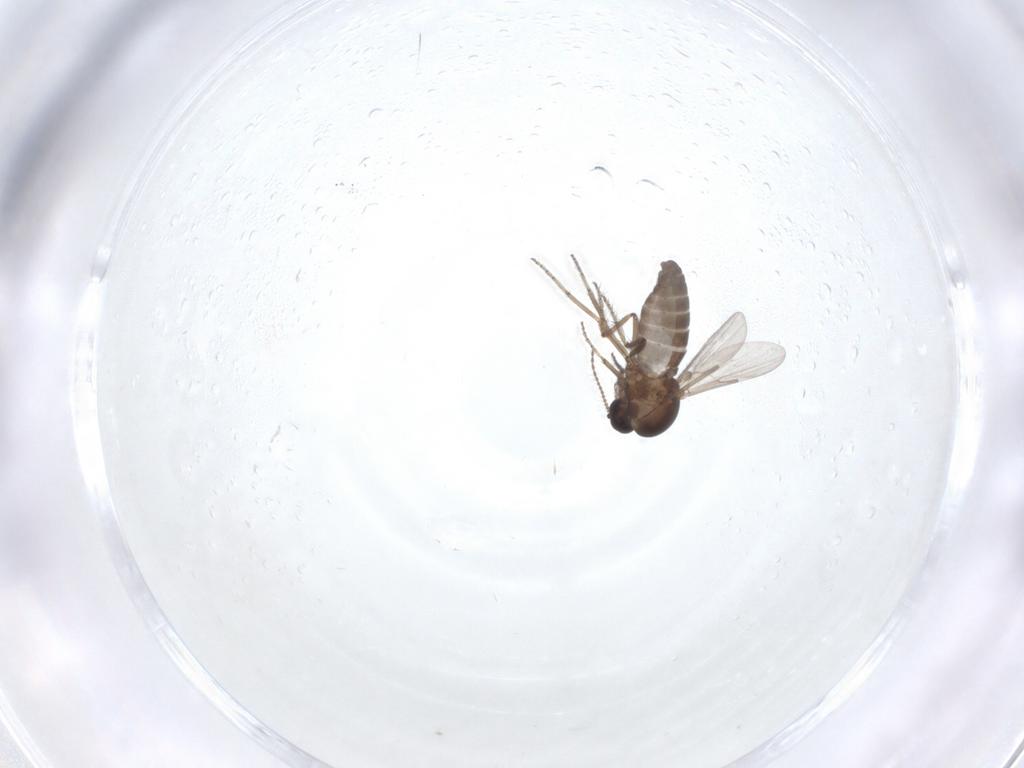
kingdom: Animalia
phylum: Arthropoda
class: Insecta
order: Diptera
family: Ceratopogonidae
